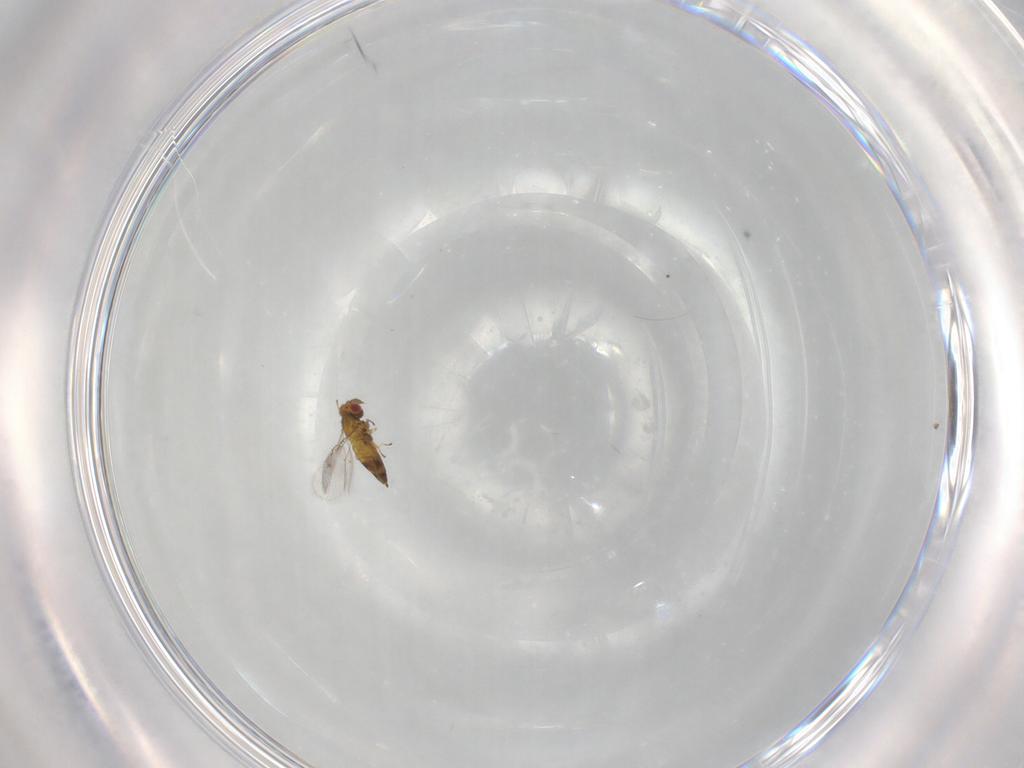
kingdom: Animalia
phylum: Arthropoda
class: Insecta
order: Hymenoptera
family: Trichogrammatidae
